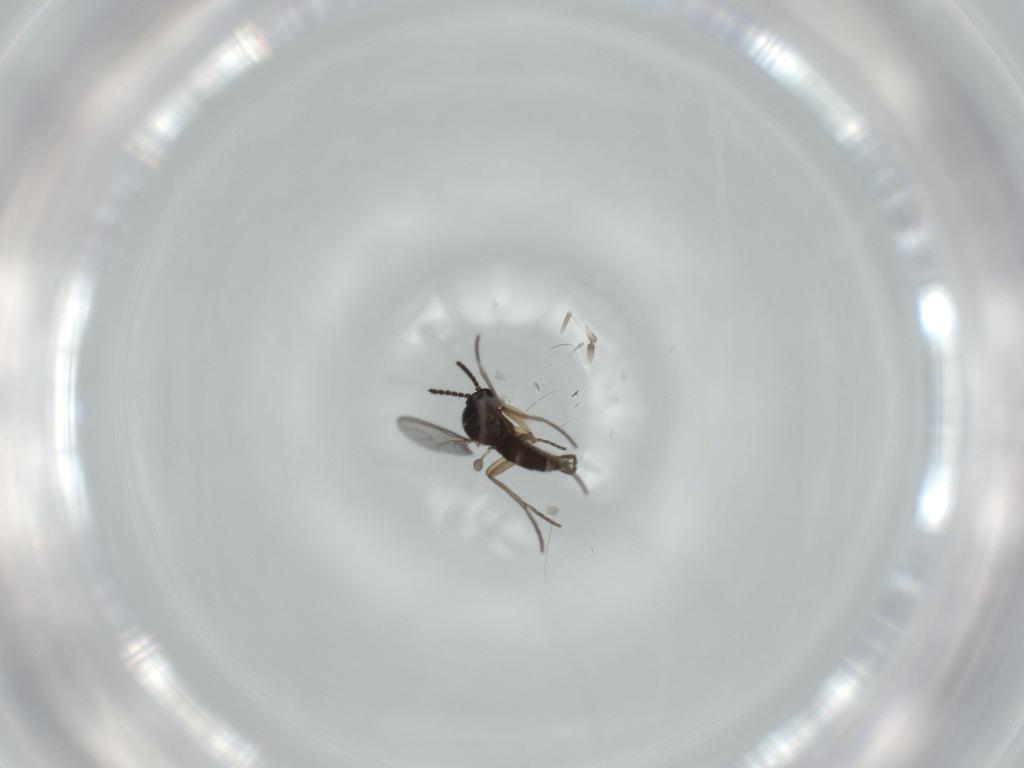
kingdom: Animalia
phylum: Arthropoda
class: Insecta
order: Diptera
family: Sciaridae
